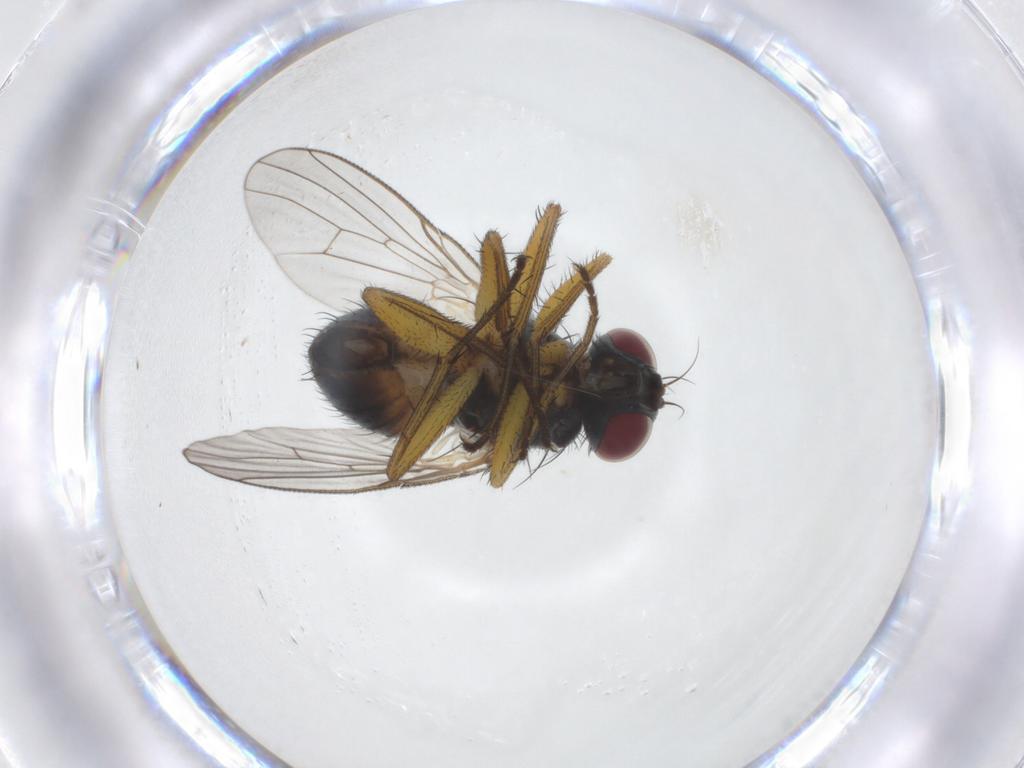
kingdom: Animalia
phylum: Arthropoda
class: Insecta
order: Diptera
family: Muscidae
